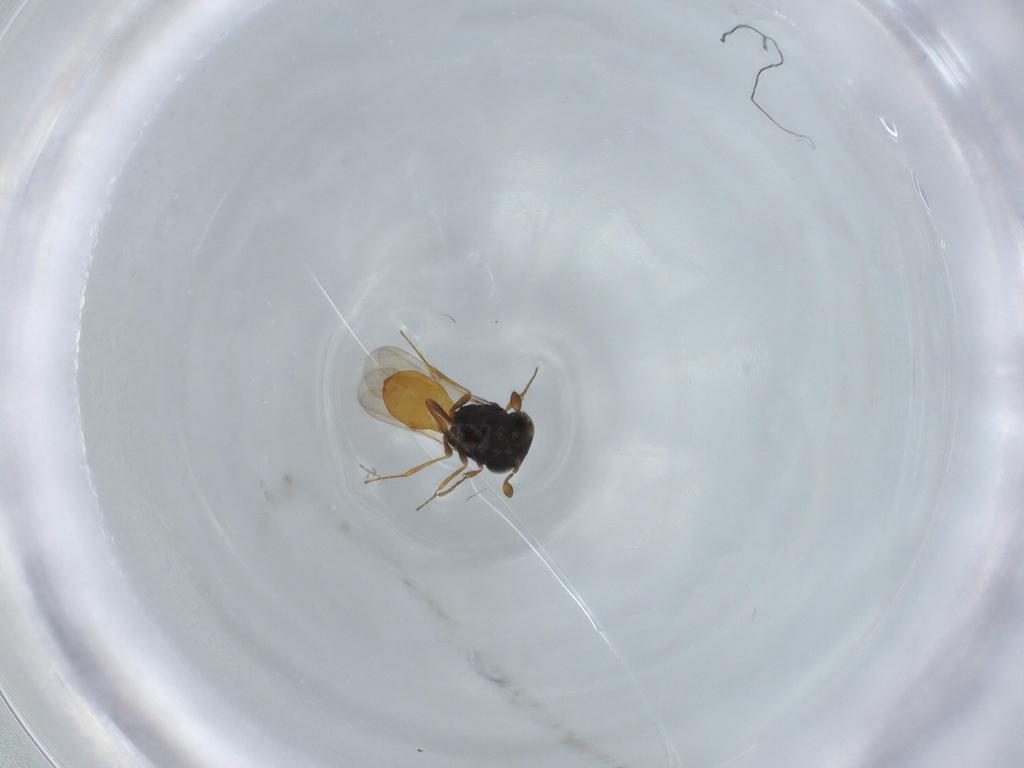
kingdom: Animalia
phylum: Arthropoda
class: Insecta
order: Hymenoptera
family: Scelionidae
